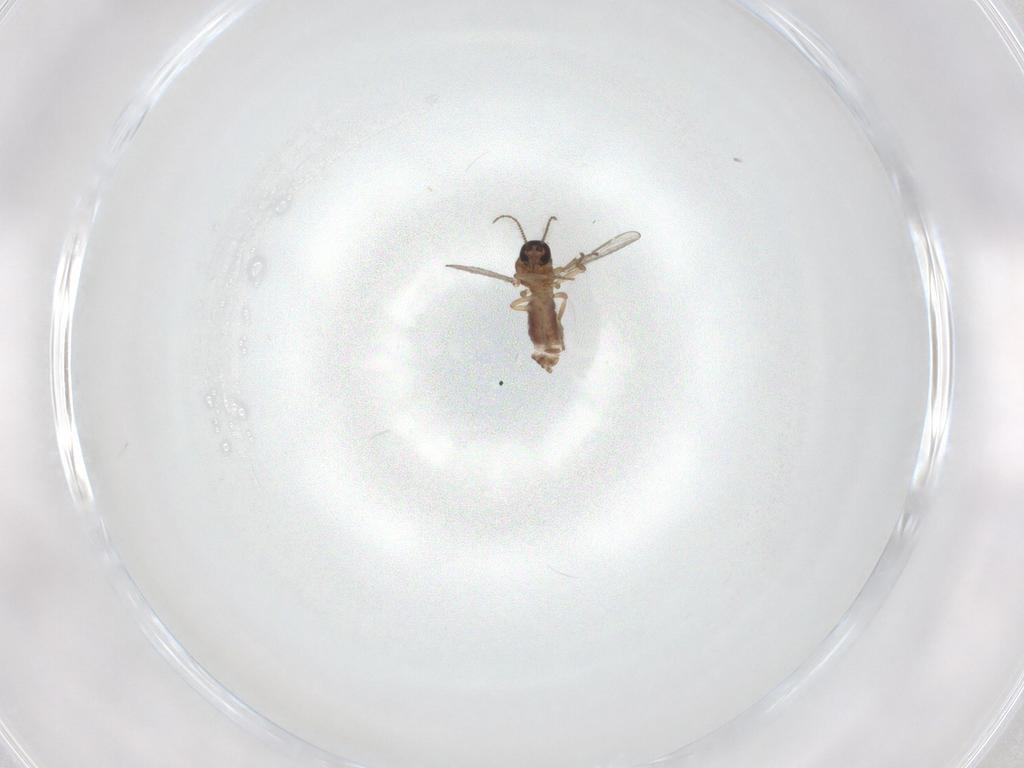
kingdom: Animalia
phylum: Arthropoda
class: Insecta
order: Diptera
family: Dolichopodidae
